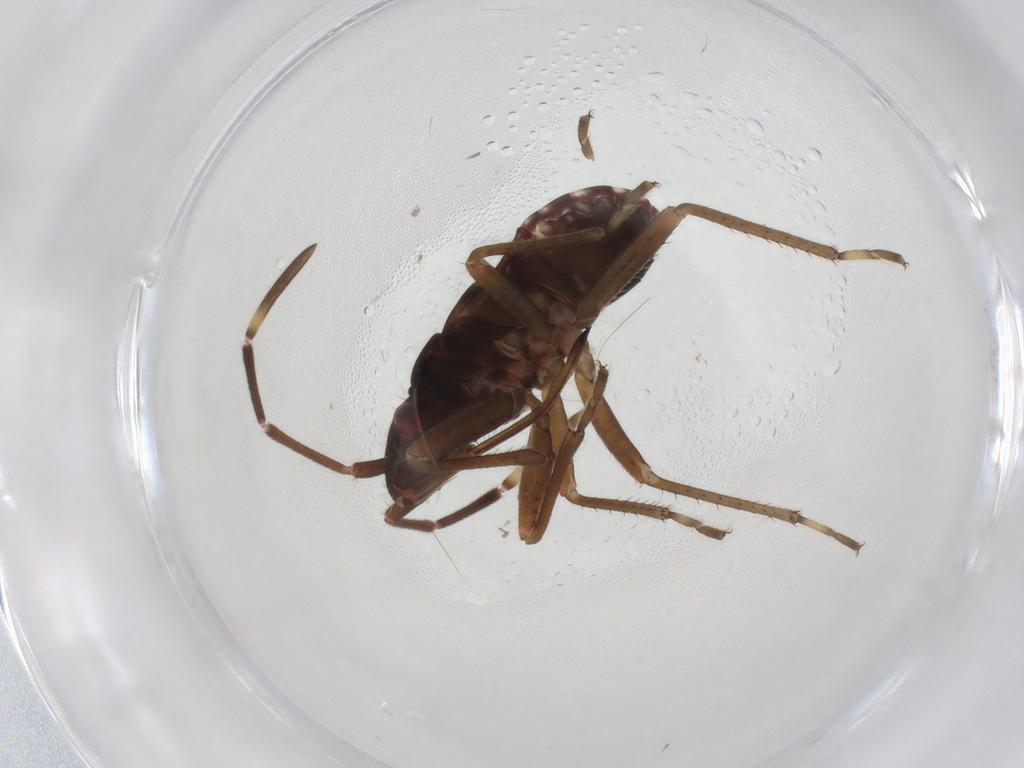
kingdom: Animalia
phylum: Arthropoda
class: Insecta
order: Hemiptera
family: Rhyparochromidae
